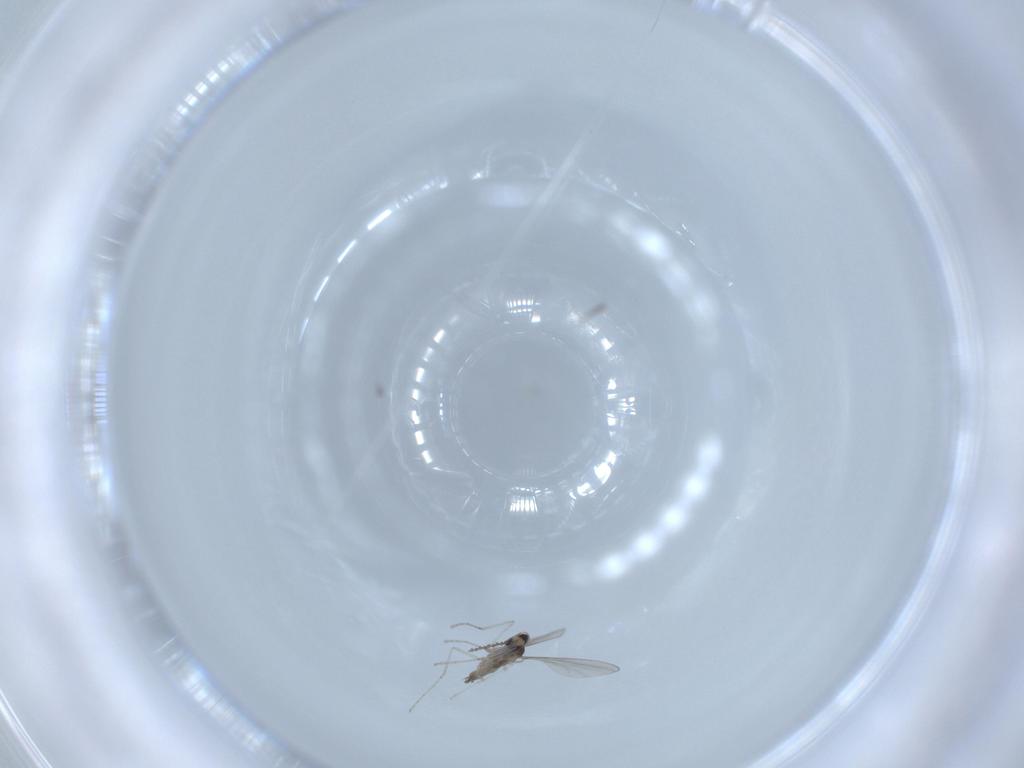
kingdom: Animalia
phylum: Arthropoda
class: Insecta
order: Diptera
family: Cecidomyiidae
